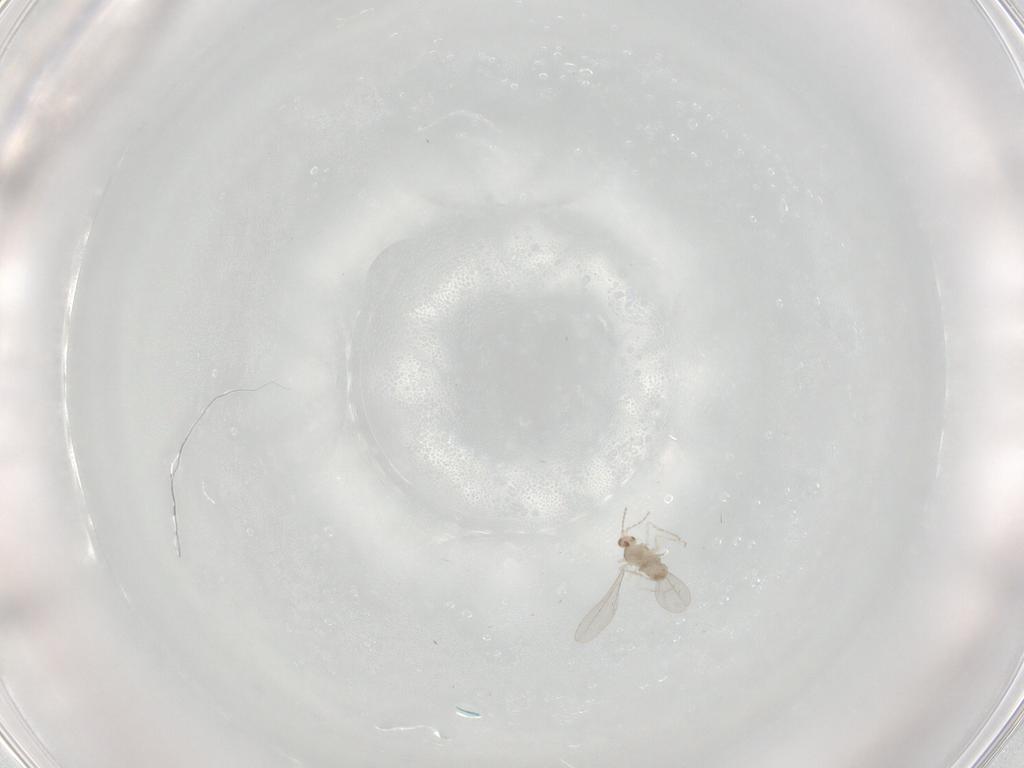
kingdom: Animalia
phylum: Arthropoda
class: Insecta
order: Diptera
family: Cecidomyiidae
